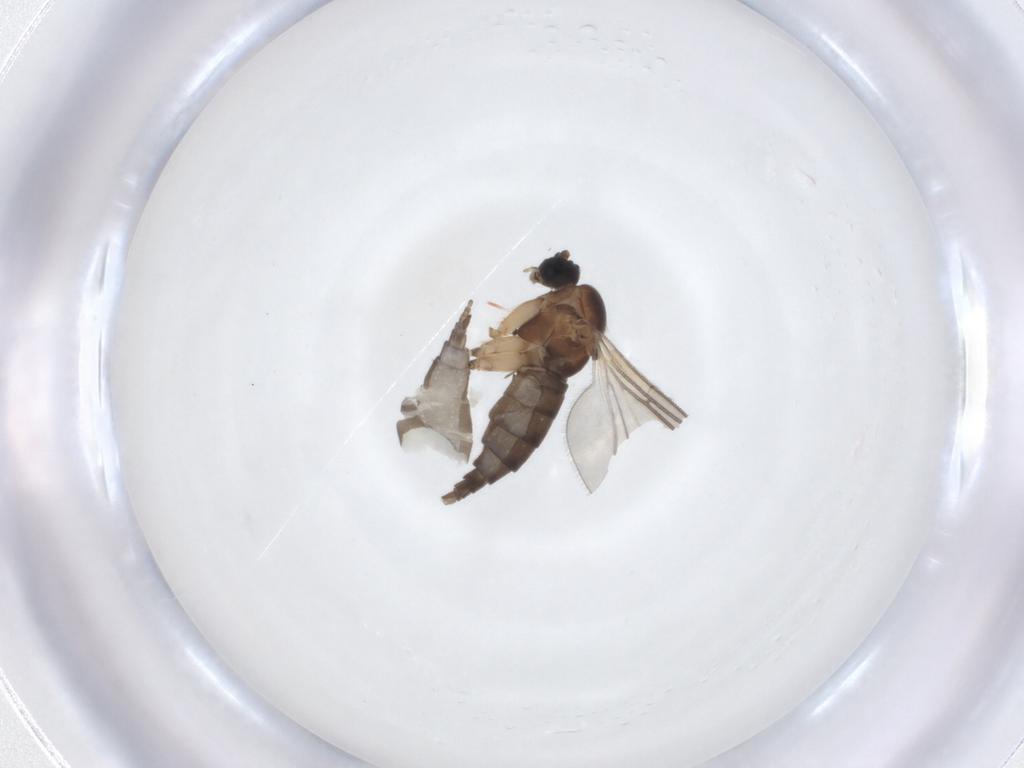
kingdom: Animalia
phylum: Arthropoda
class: Insecta
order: Diptera
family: Sciaridae
